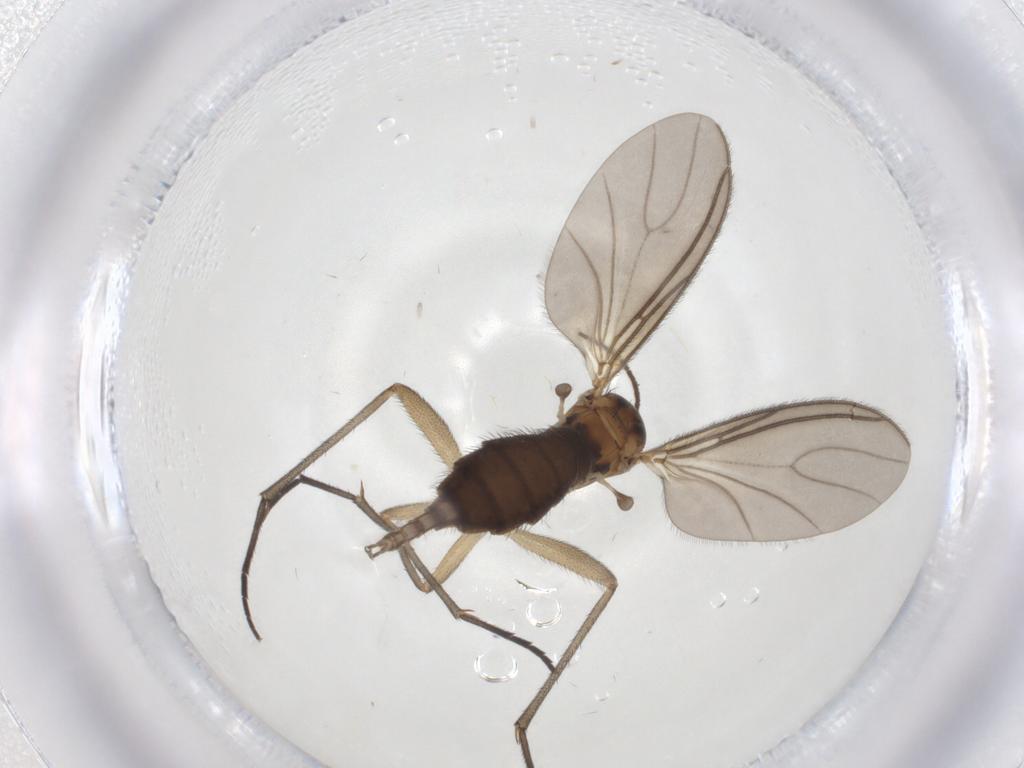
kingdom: Animalia
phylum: Arthropoda
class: Insecta
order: Diptera
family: Sciaridae
